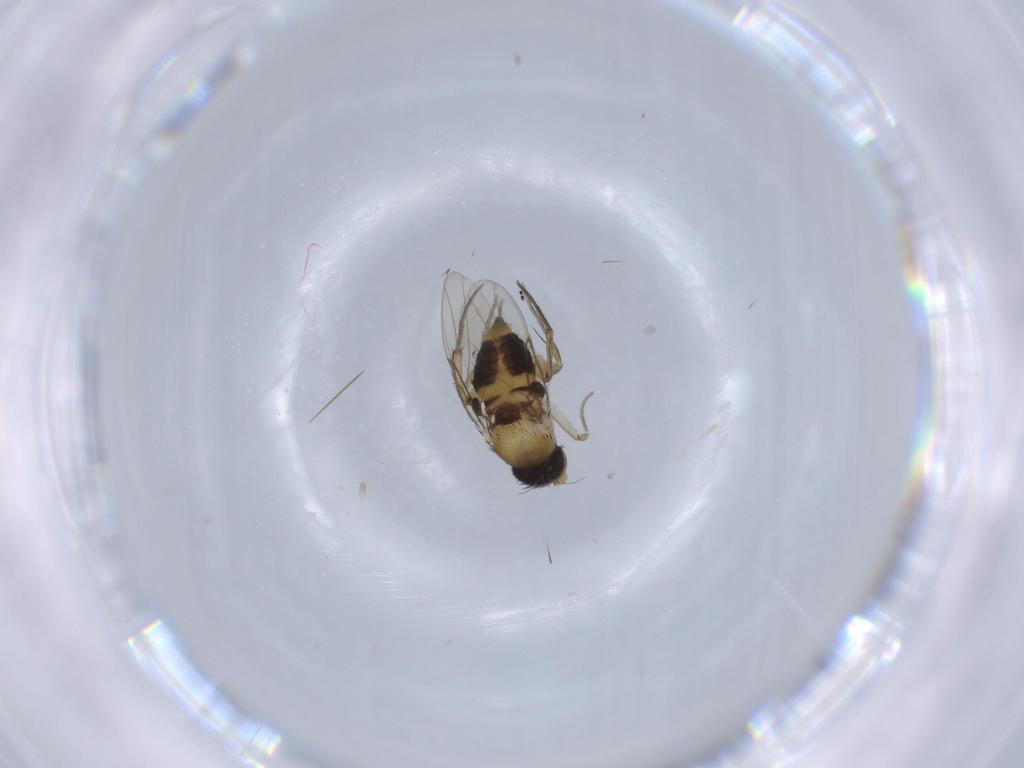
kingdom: Animalia
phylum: Arthropoda
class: Insecta
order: Diptera
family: Phoridae
